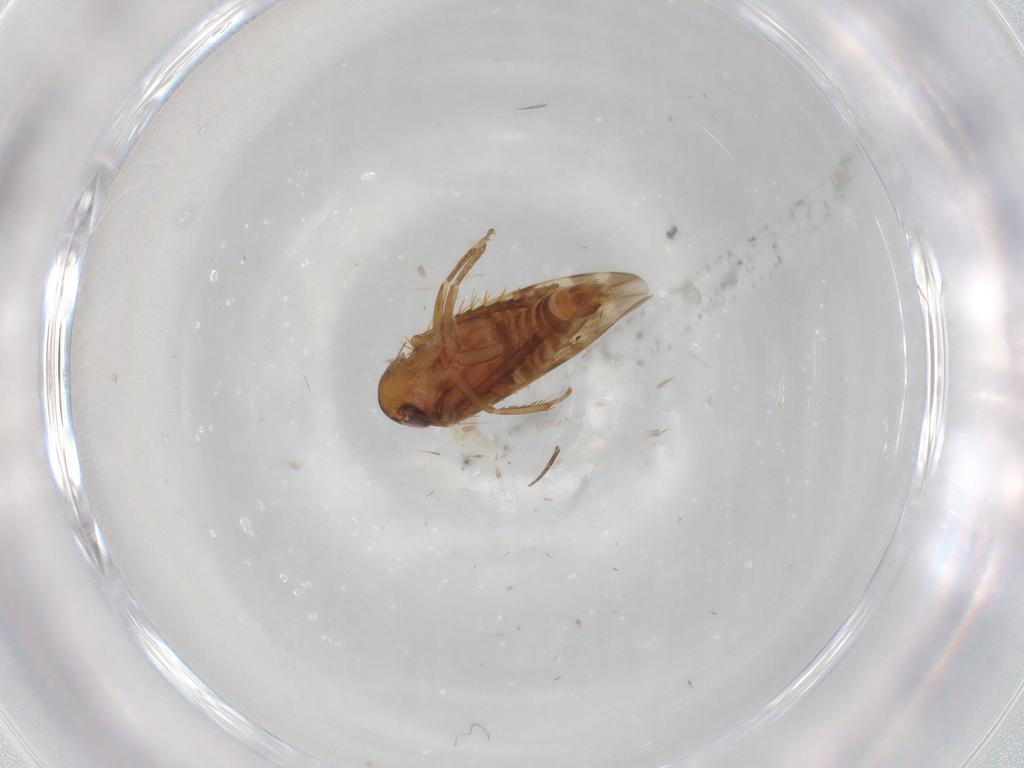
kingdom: Animalia
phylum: Arthropoda
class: Insecta
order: Hemiptera
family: Cicadellidae
